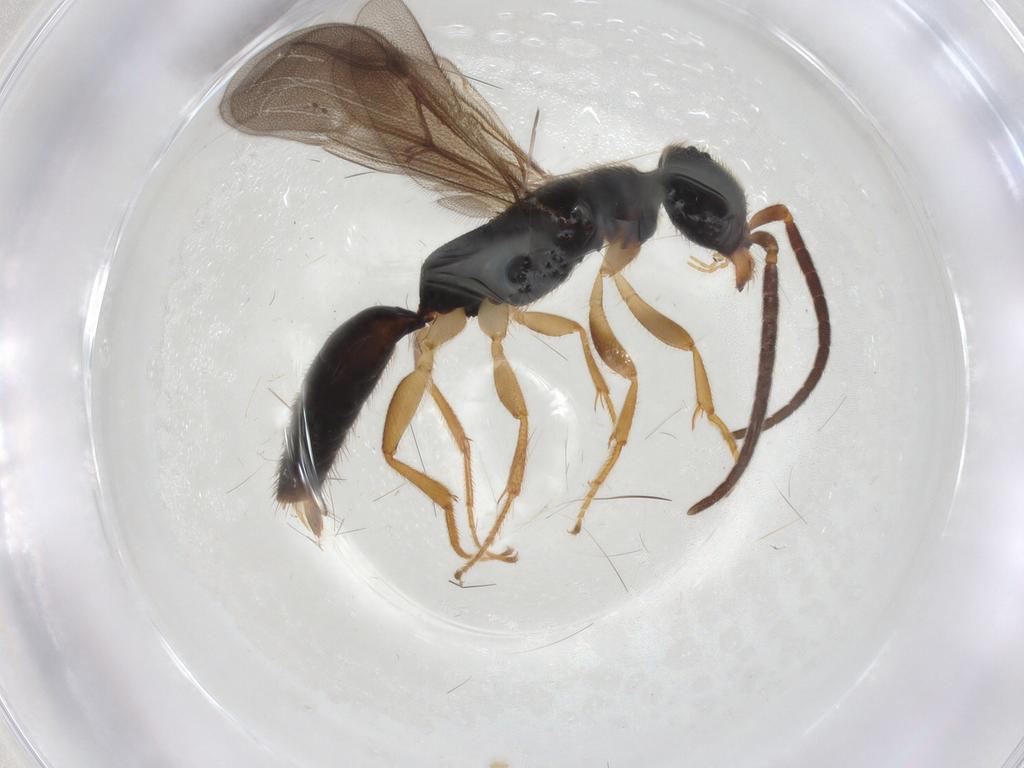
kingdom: Animalia
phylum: Arthropoda
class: Insecta
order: Hymenoptera
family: Bethylidae
